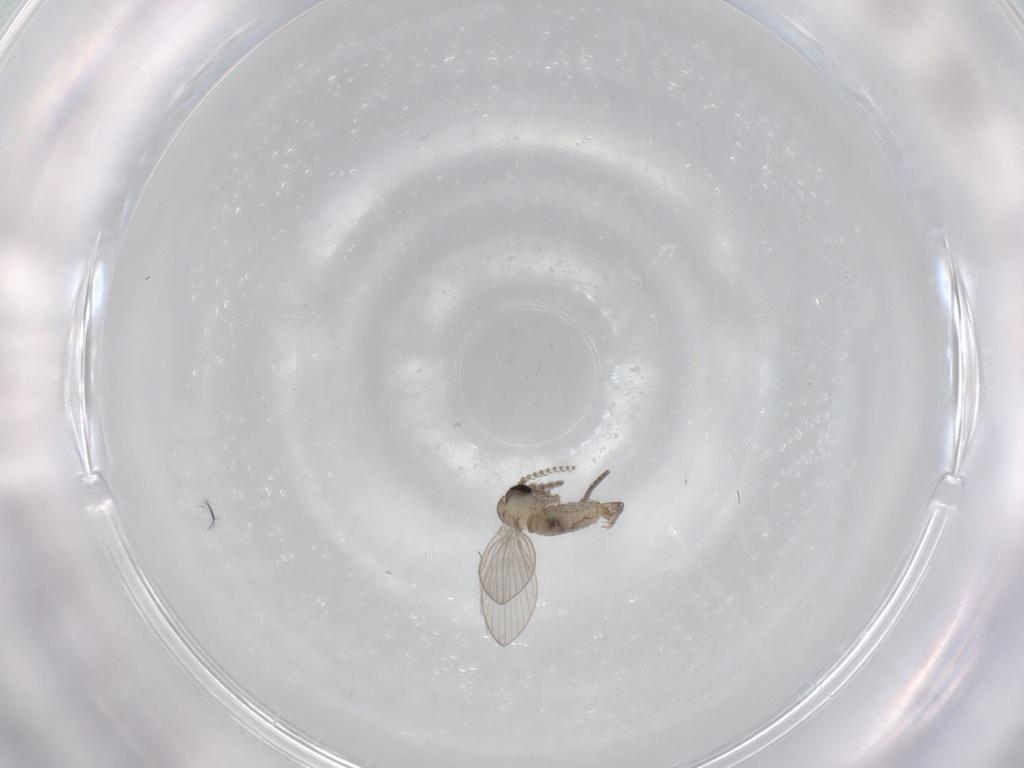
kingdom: Animalia
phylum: Arthropoda
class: Insecta
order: Diptera
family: Psychodidae
